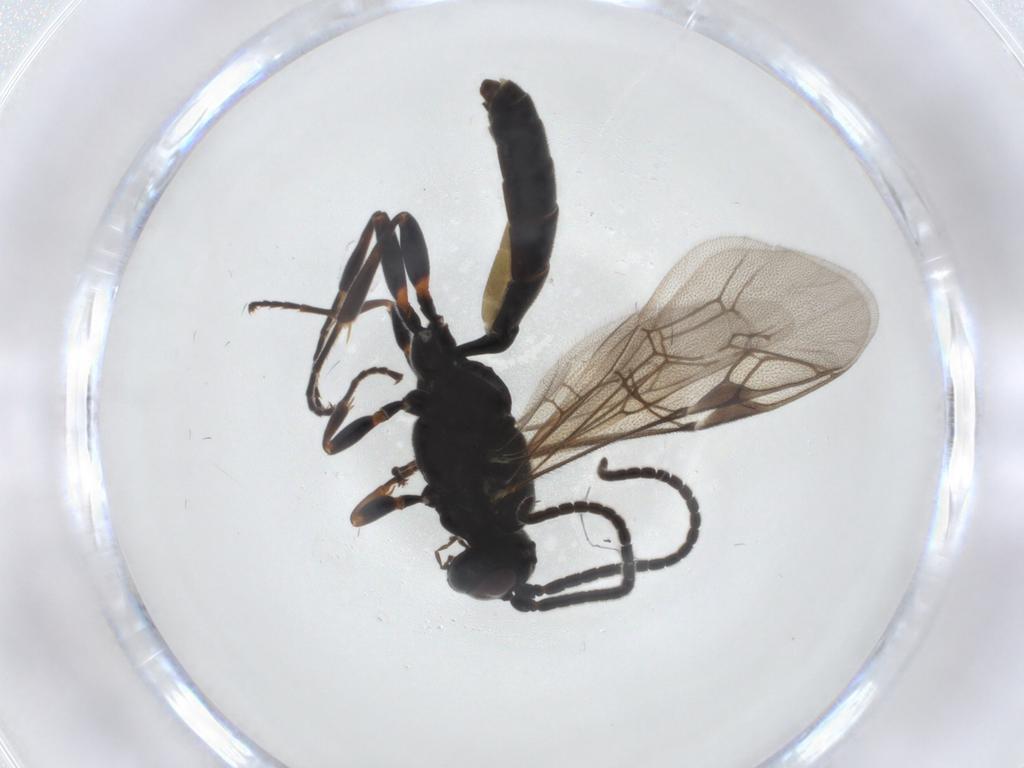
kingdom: Animalia
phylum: Arthropoda
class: Insecta
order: Hymenoptera
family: Ichneumonidae
